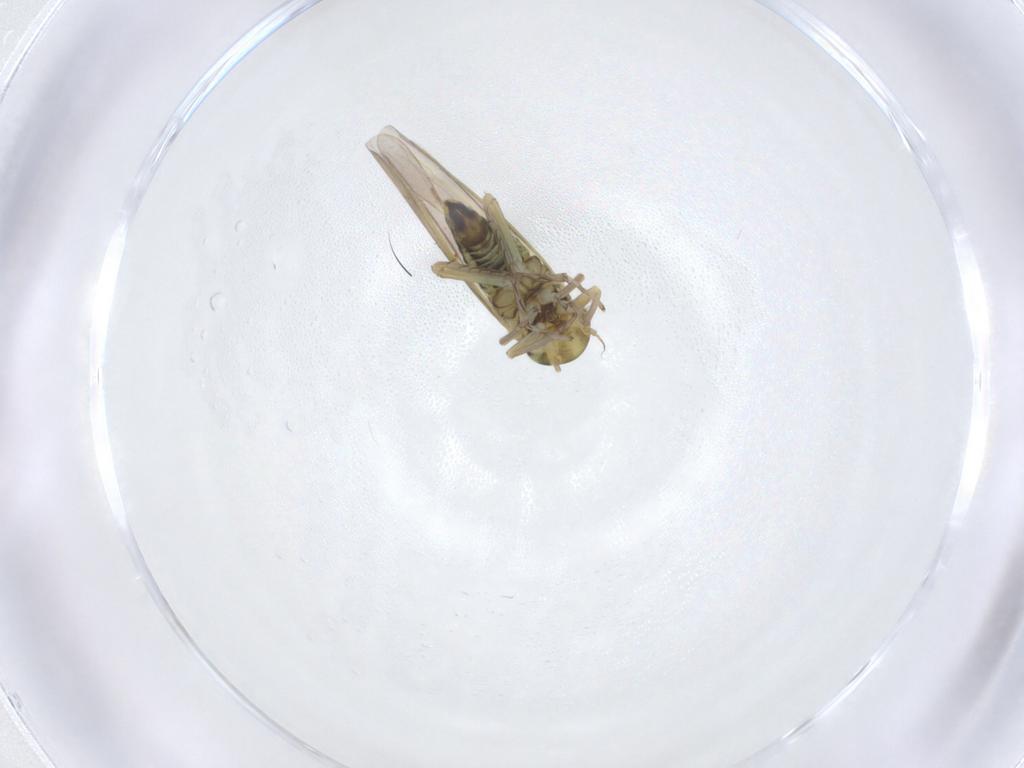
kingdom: Animalia
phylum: Arthropoda
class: Insecta
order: Hemiptera
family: Cicadellidae
